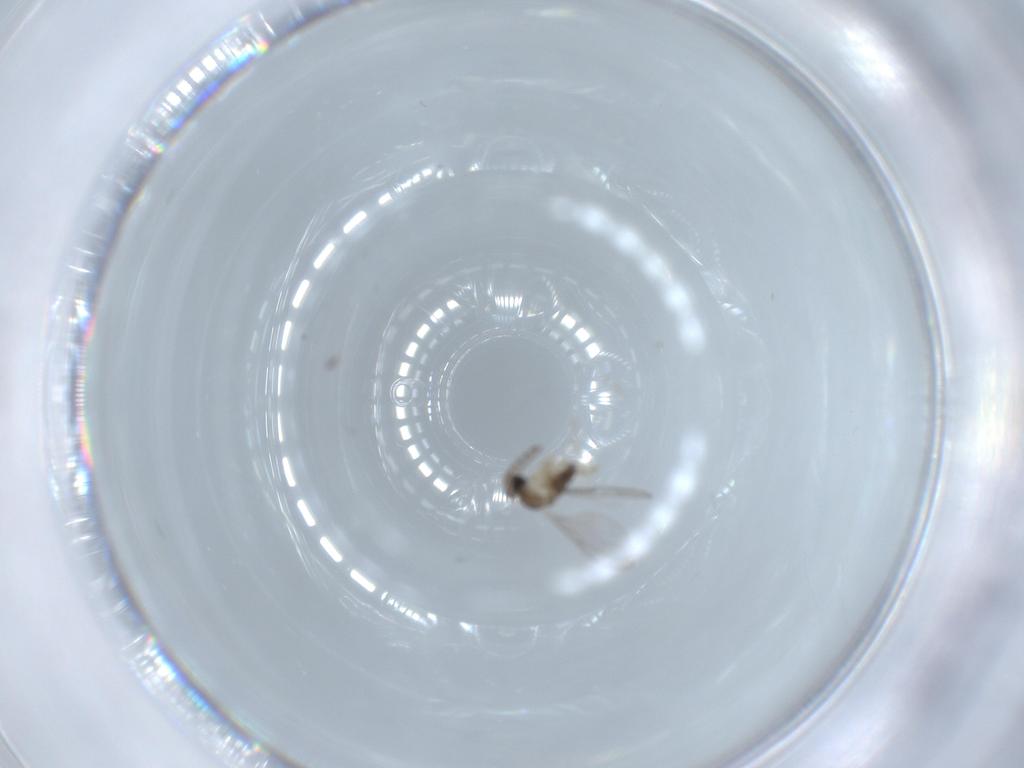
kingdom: Animalia
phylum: Arthropoda
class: Insecta
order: Diptera
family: Cecidomyiidae
